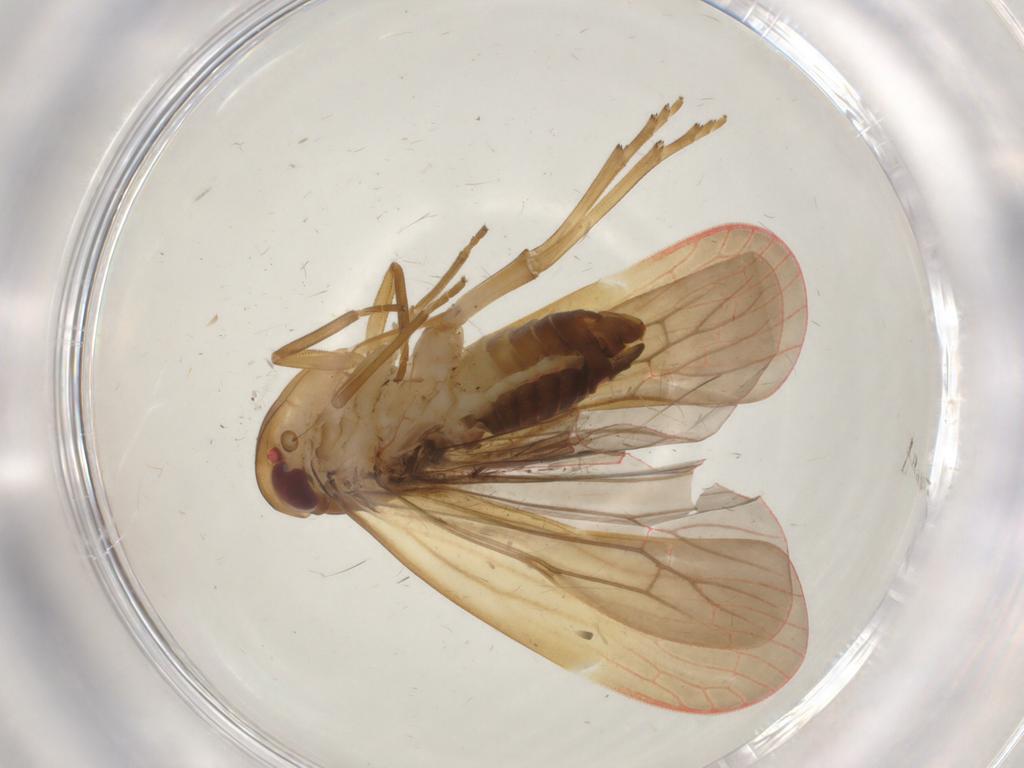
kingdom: Animalia
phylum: Arthropoda
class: Insecta
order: Hemiptera
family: Achilidae
